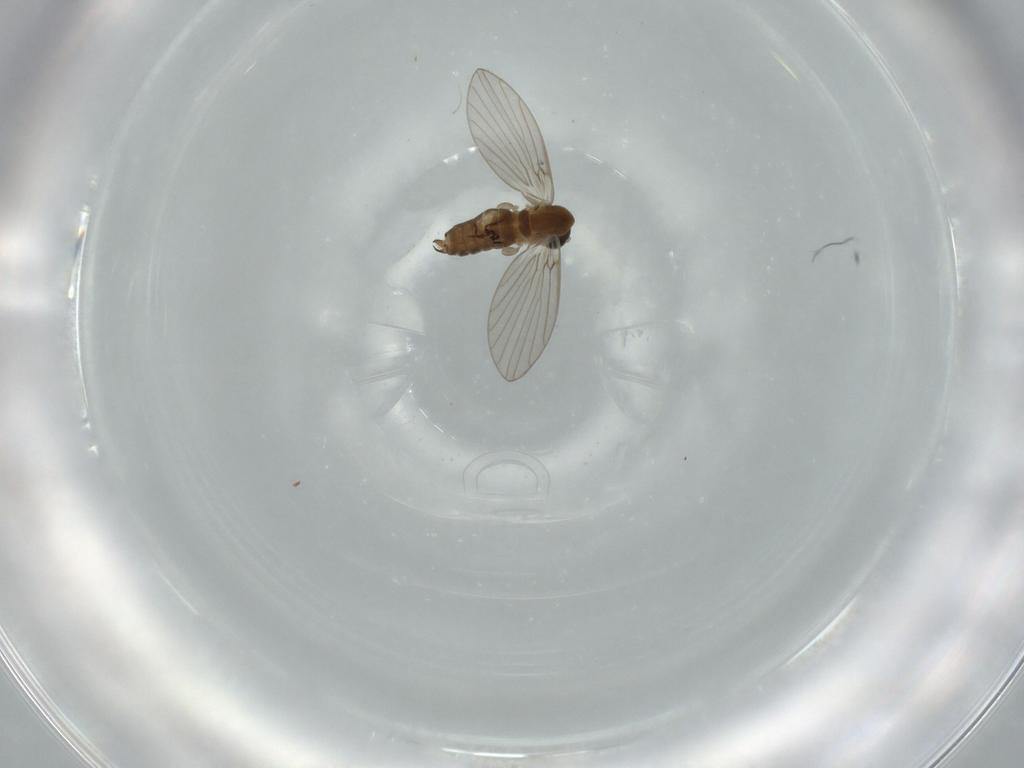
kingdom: Animalia
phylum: Arthropoda
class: Insecta
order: Diptera
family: Psychodidae
